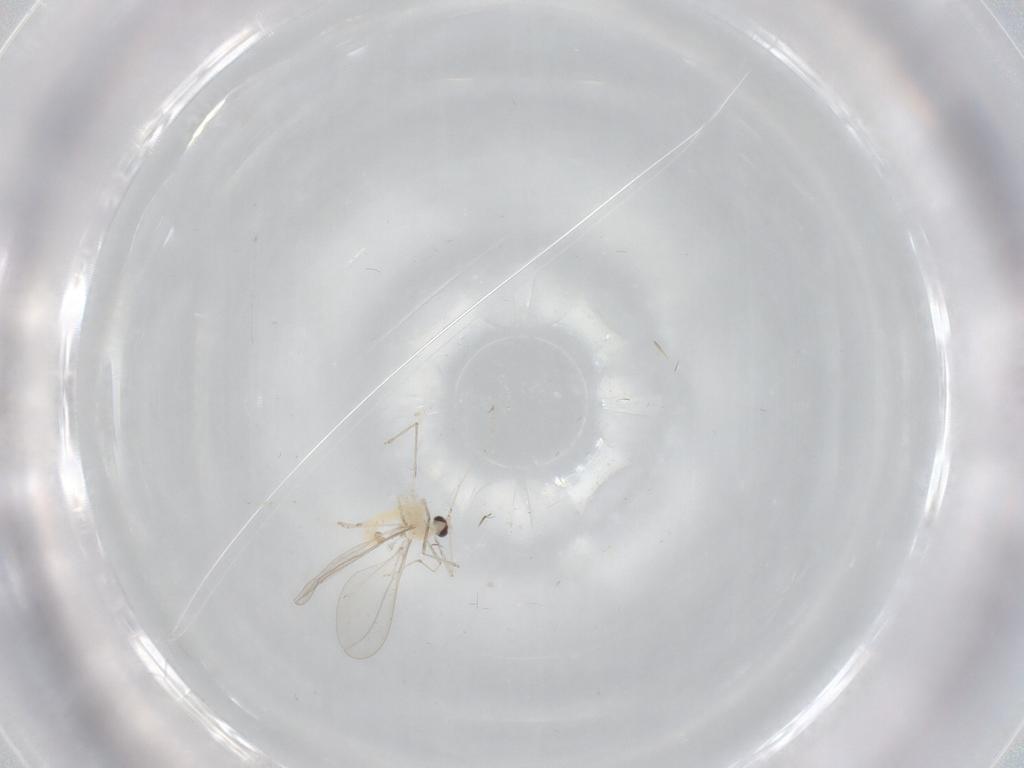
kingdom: Animalia
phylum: Arthropoda
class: Insecta
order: Diptera
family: Cecidomyiidae
